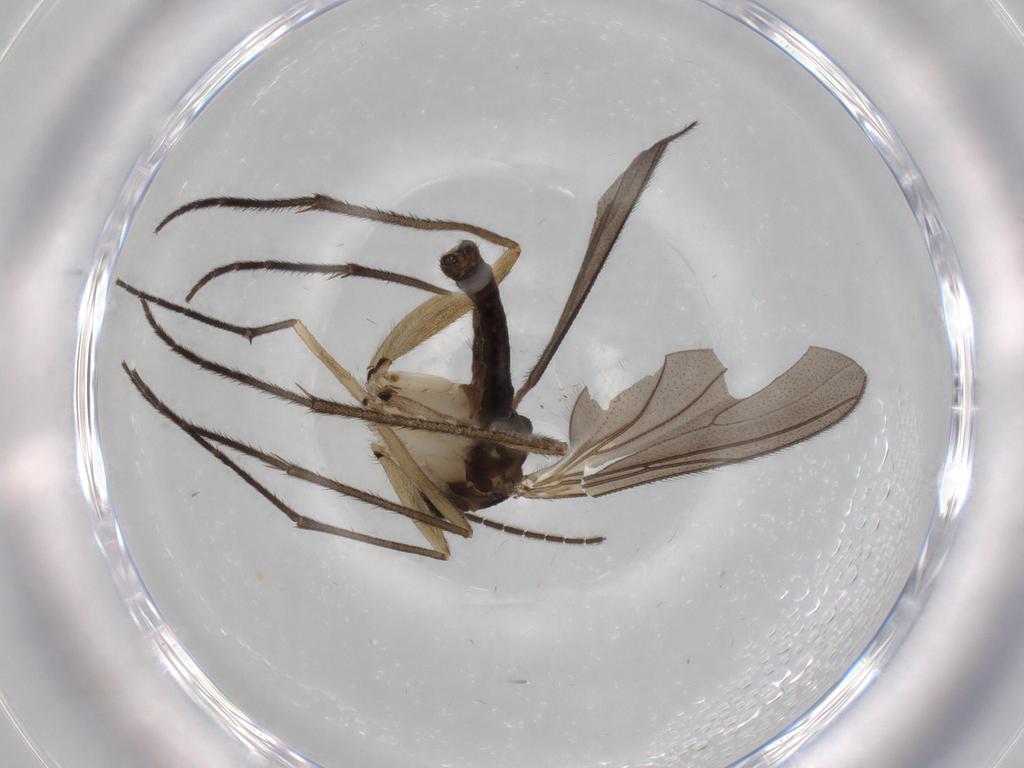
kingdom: Animalia
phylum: Arthropoda
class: Insecta
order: Diptera
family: Sciaridae
